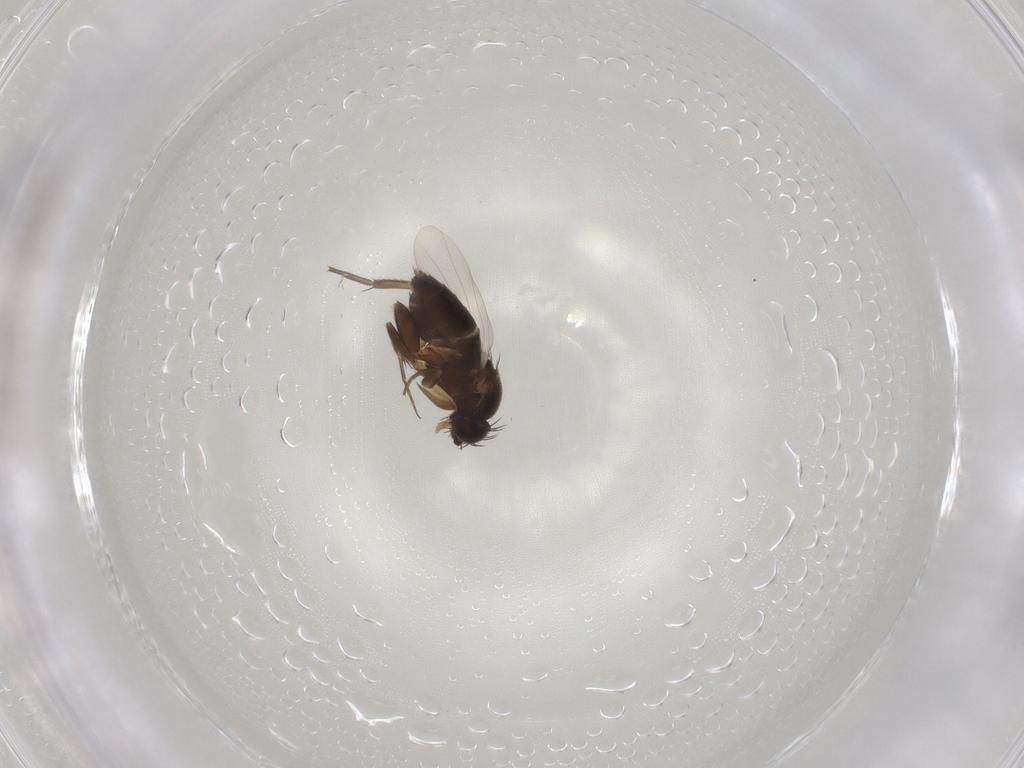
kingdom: Animalia
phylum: Arthropoda
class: Insecta
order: Diptera
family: Phoridae
